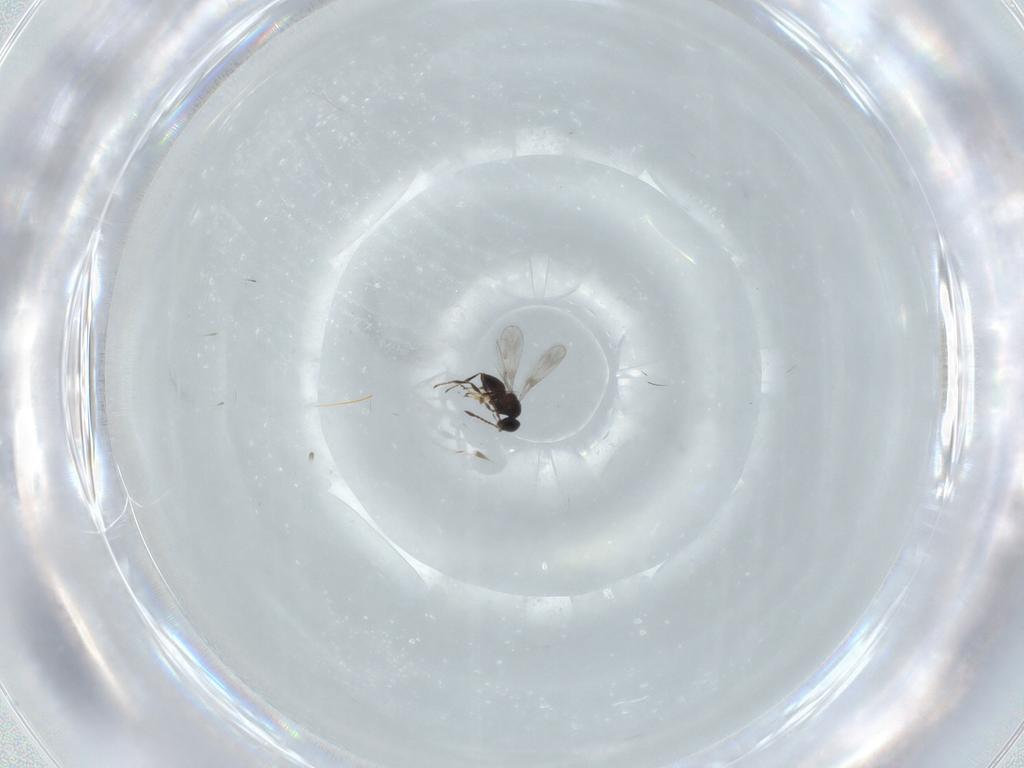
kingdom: Animalia
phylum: Arthropoda
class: Insecta
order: Hymenoptera
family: Platygastridae
